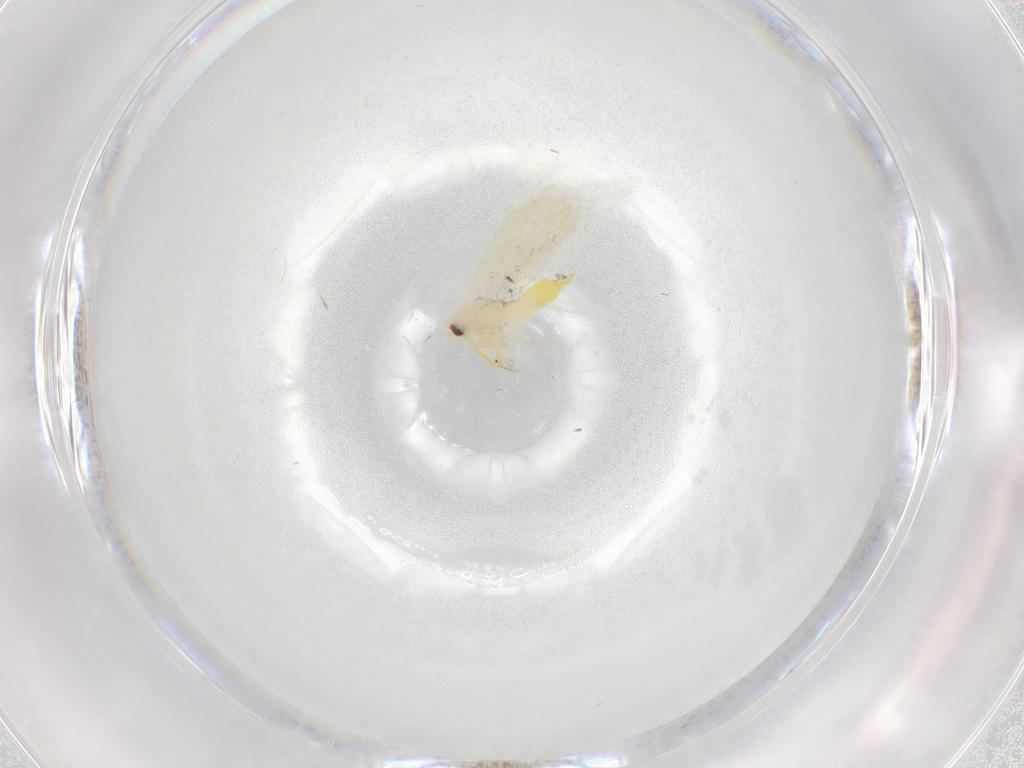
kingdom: Animalia
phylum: Arthropoda
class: Insecta
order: Hemiptera
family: Aleyrodidae
